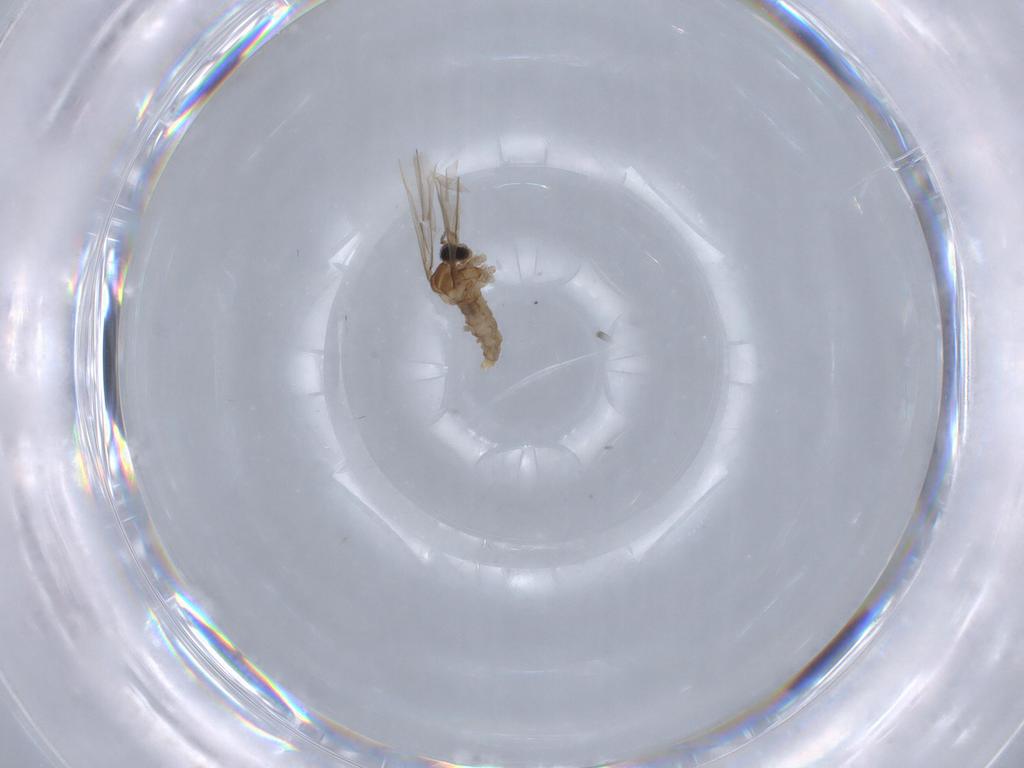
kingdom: Animalia
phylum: Arthropoda
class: Insecta
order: Diptera
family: Cecidomyiidae
